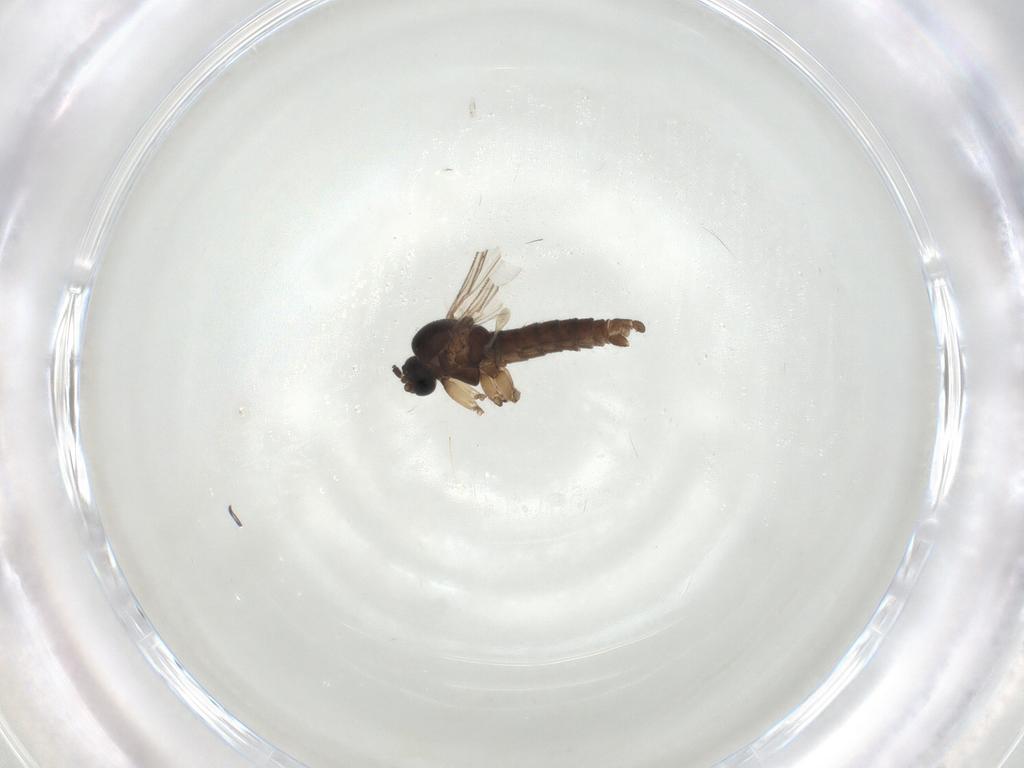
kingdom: Animalia
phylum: Arthropoda
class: Insecta
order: Diptera
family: Sciaridae
